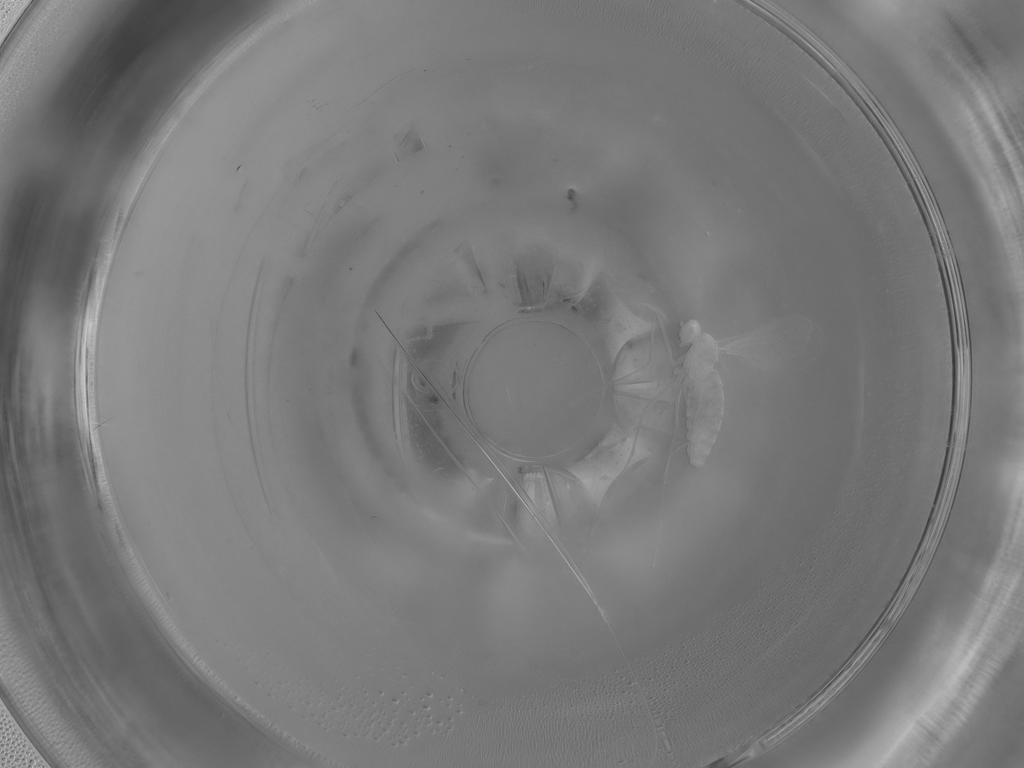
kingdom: Animalia
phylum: Arthropoda
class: Insecta
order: Diptera
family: Cecidomyiidae
